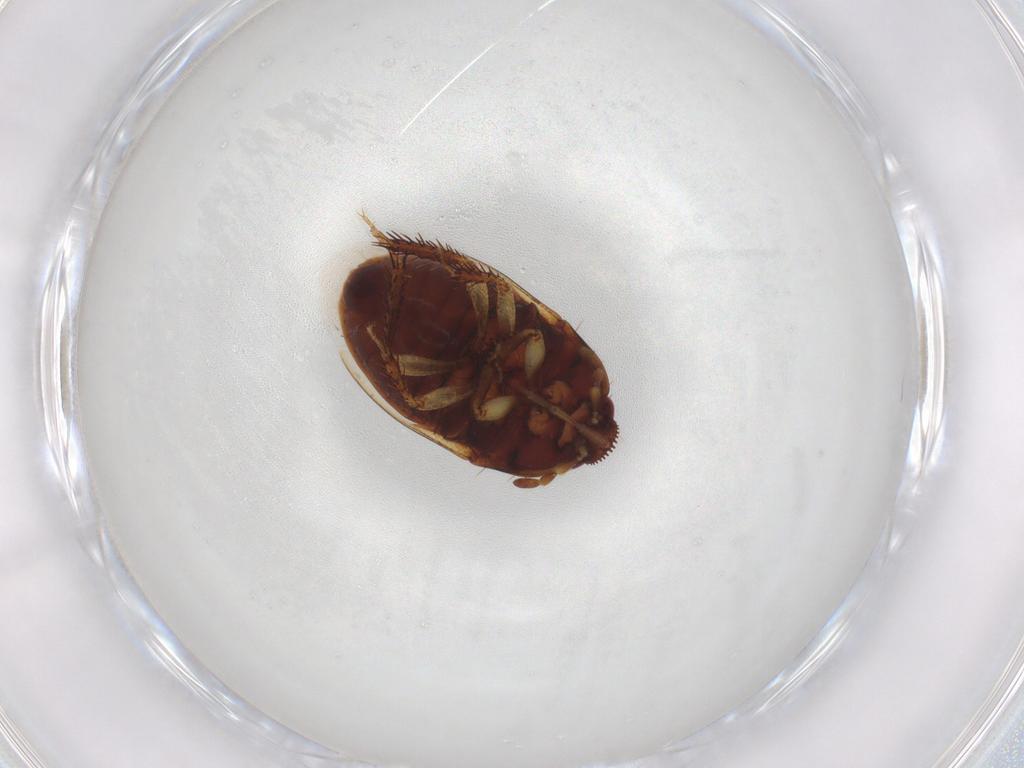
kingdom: Animalia
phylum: Arthropoda
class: Insecta
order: Hemiptera
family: Cydnidae
